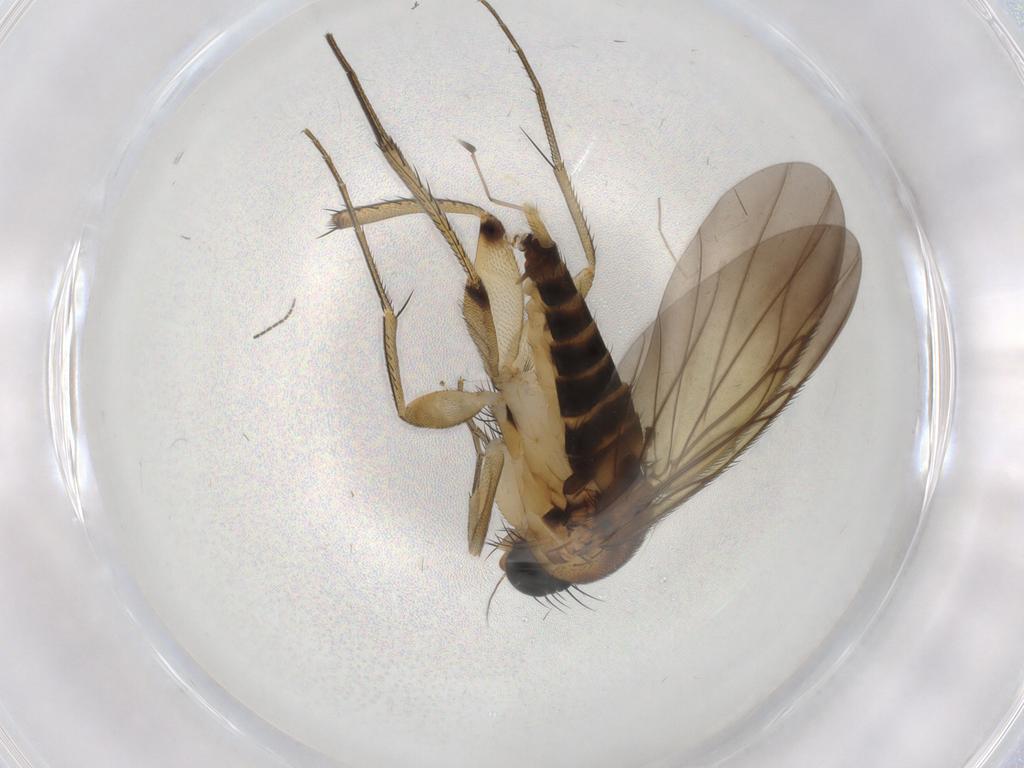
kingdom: Animalia
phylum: Arthropoda
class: Insecta
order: Diptera
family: Phoridae
